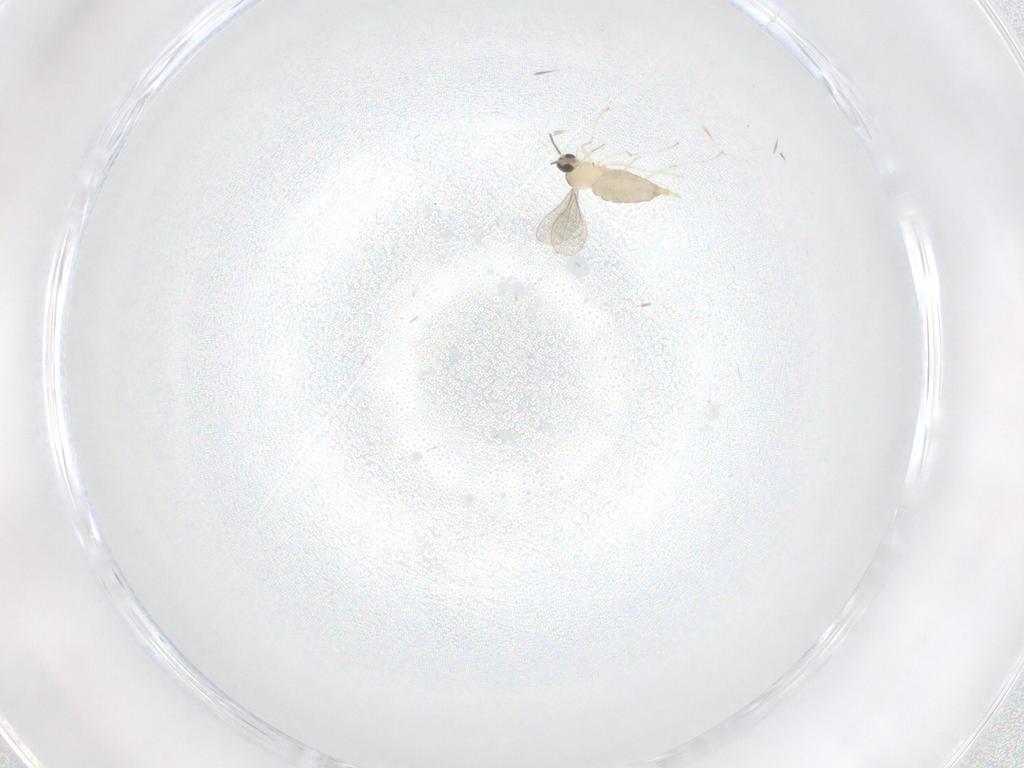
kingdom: Animalia
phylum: Arthropoda
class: Insecta
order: Diptera
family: Cecidomyiidae
